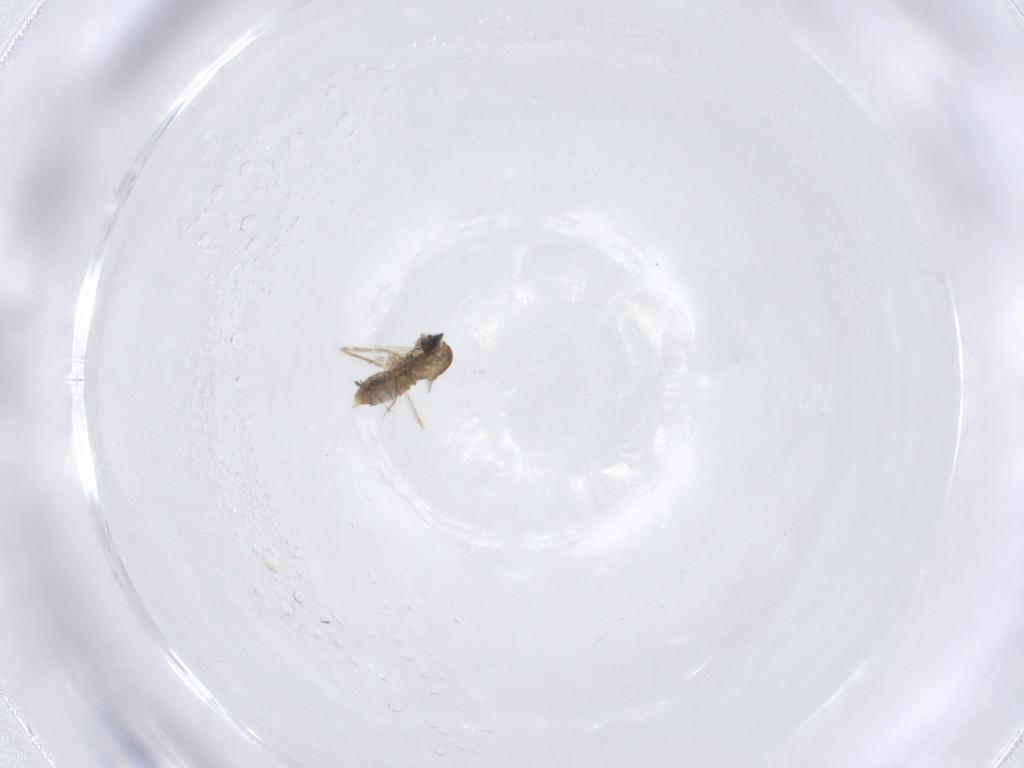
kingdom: Animalia
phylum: Arthropoda
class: Insecta
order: Diptera
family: Cecidomyiidae
